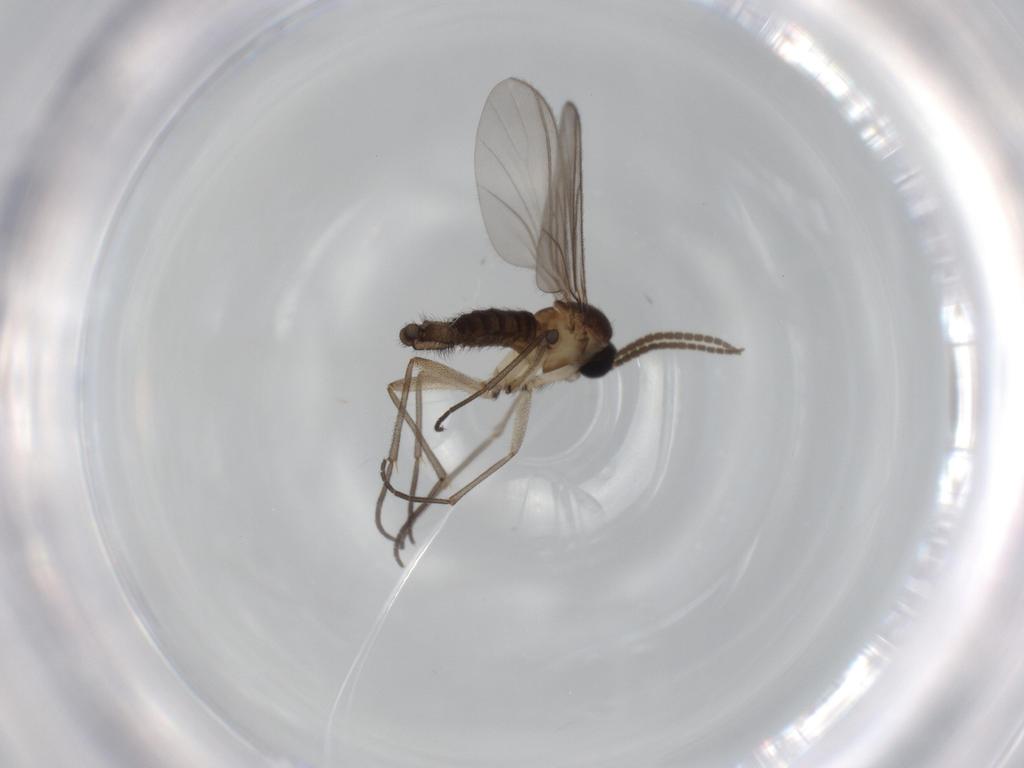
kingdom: Animalia
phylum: Arthropoda
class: Insecta
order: Diptera
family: Sciaridae
